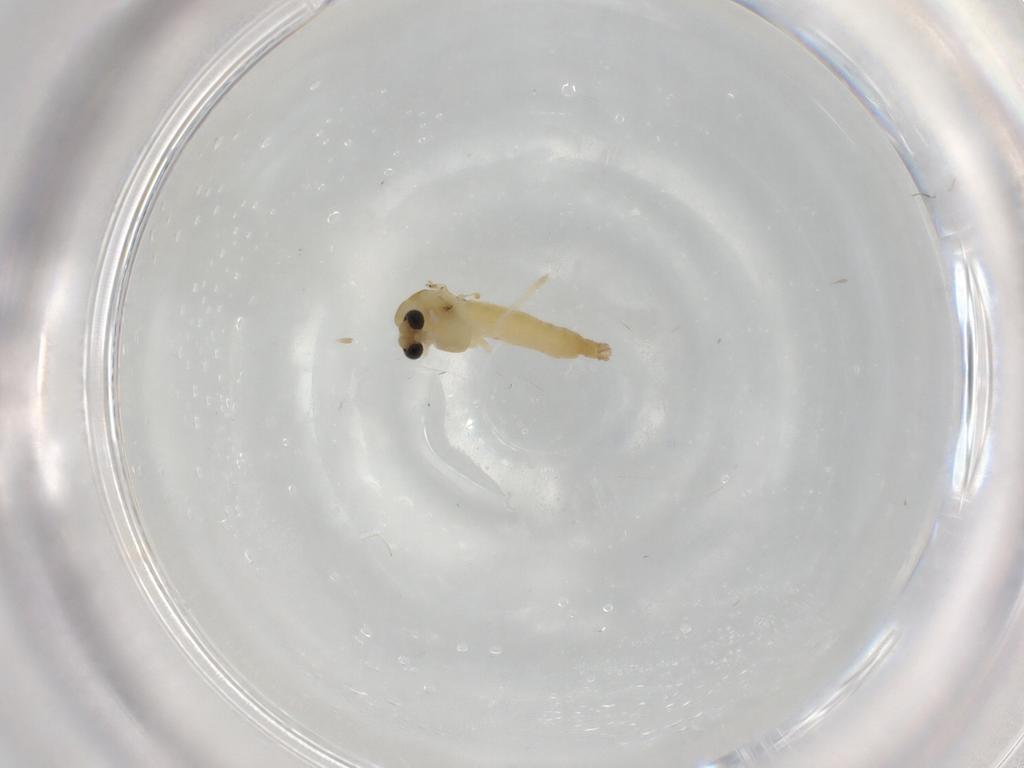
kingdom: Animalia
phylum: Arthropoda
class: Insecta
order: Diptera
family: Chironomidae
